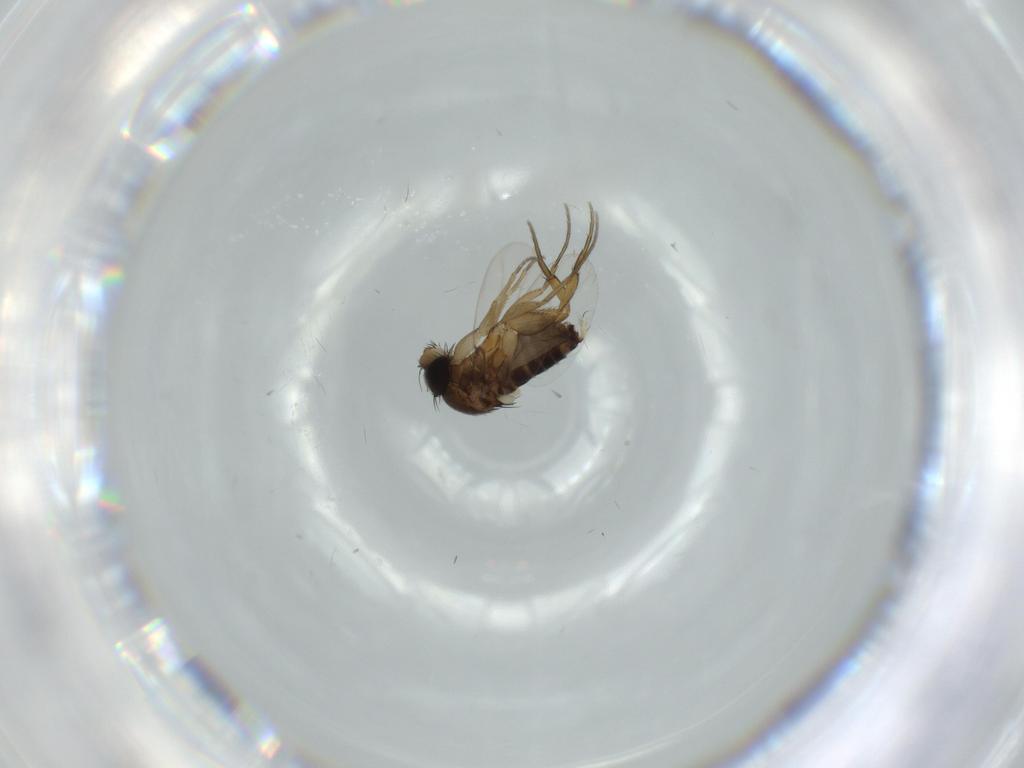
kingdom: Animalia
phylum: Arthropoda
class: Insecta
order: Diptera
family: Phoridae
